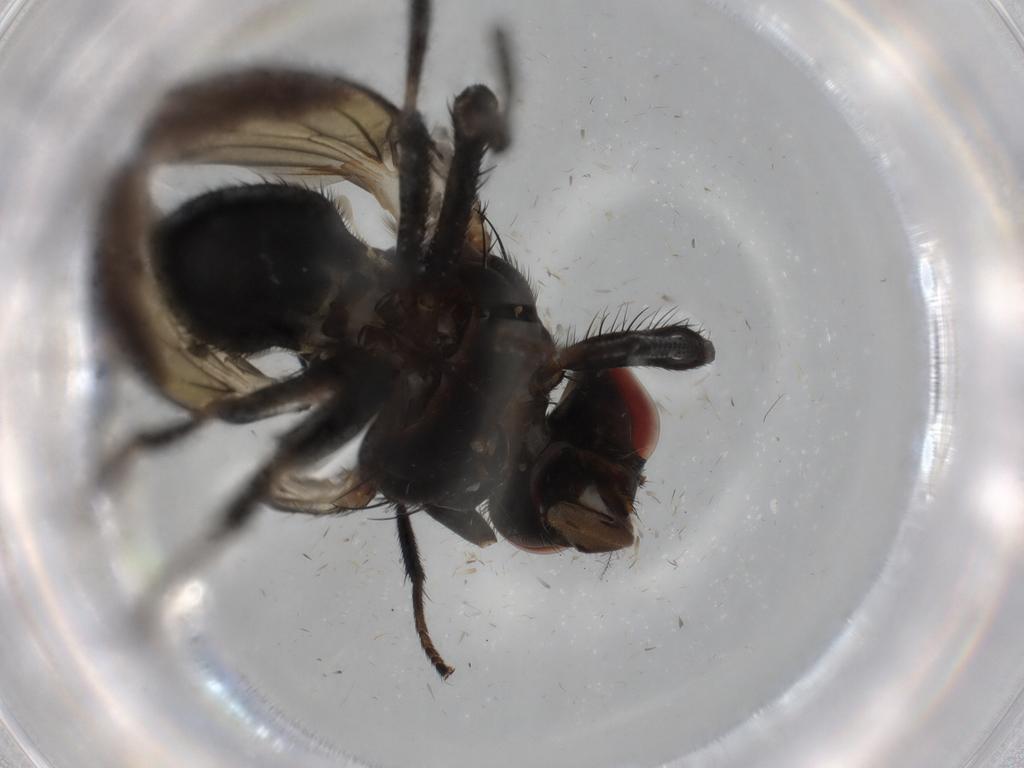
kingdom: Animalia
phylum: Arthropoda
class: Insecta
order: Diptera
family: Lauxaniidae
